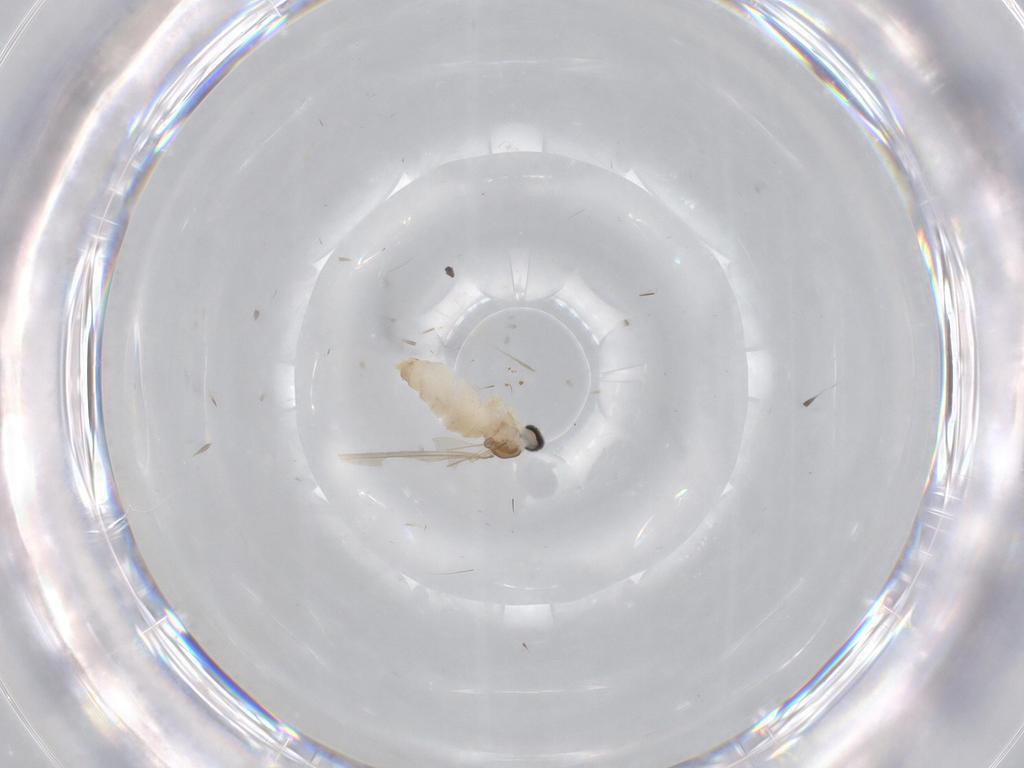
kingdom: Animalia
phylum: Arthropoda
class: Insecta
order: Diptera
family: Cecidomyiidae
